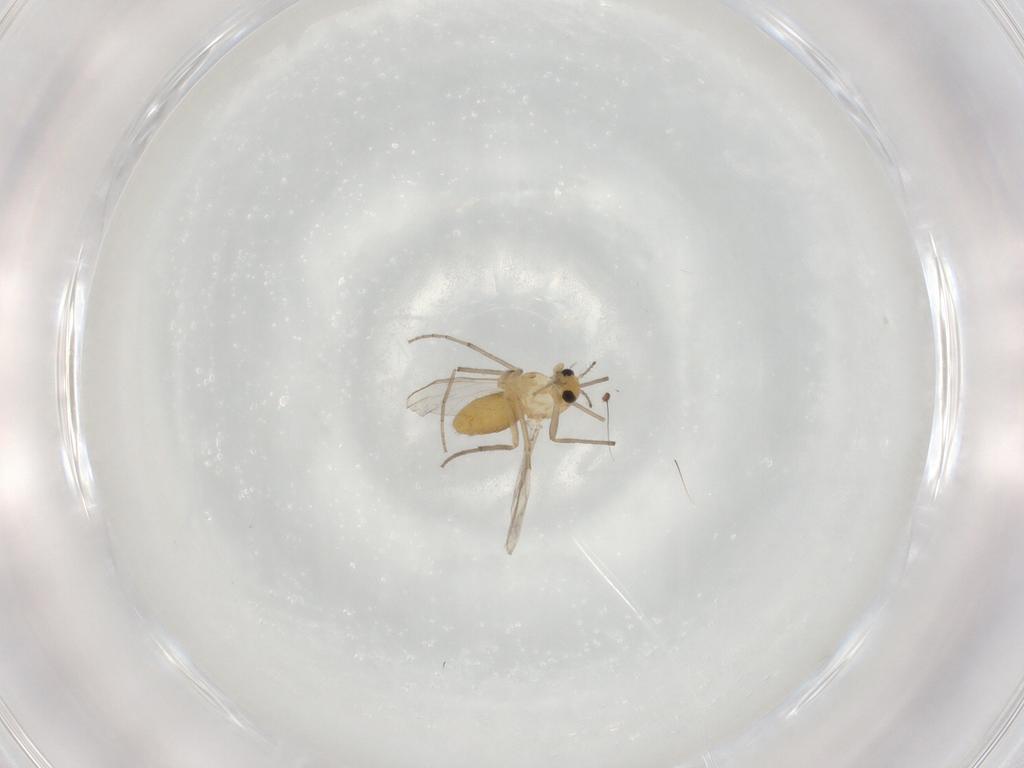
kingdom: Animalia
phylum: Arthropoda
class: Insecta
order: Diptera
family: Chironomidae
